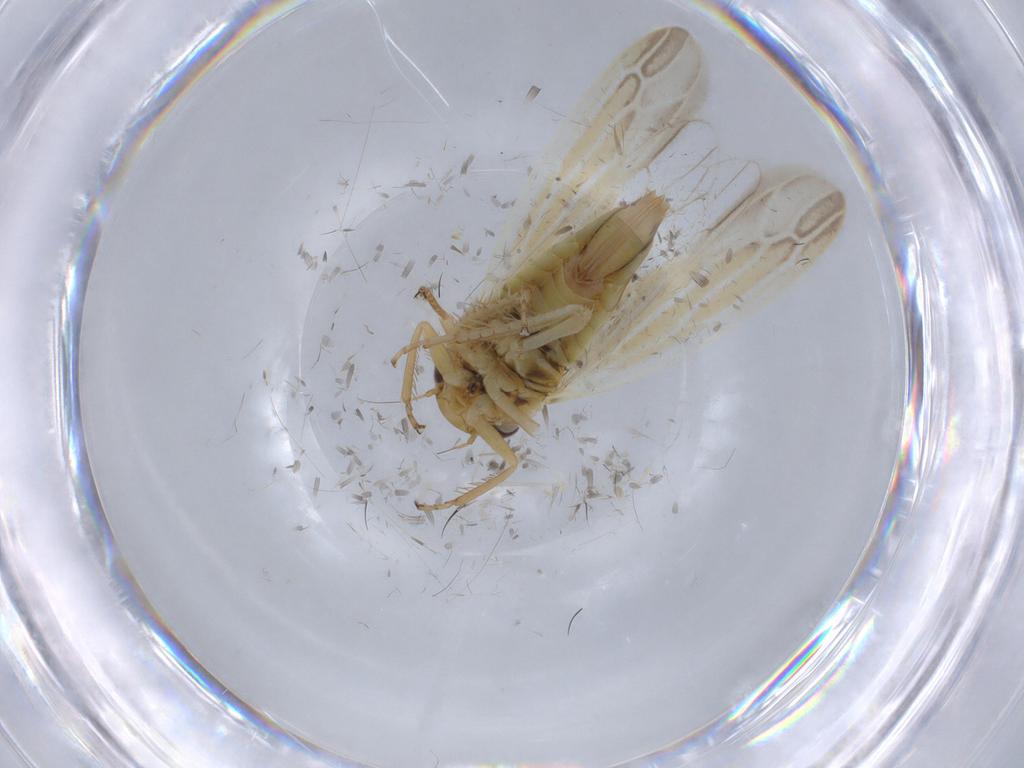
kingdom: Animalia
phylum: Arthropoda
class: Insecta
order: Hemiptera
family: Cicadellidae
